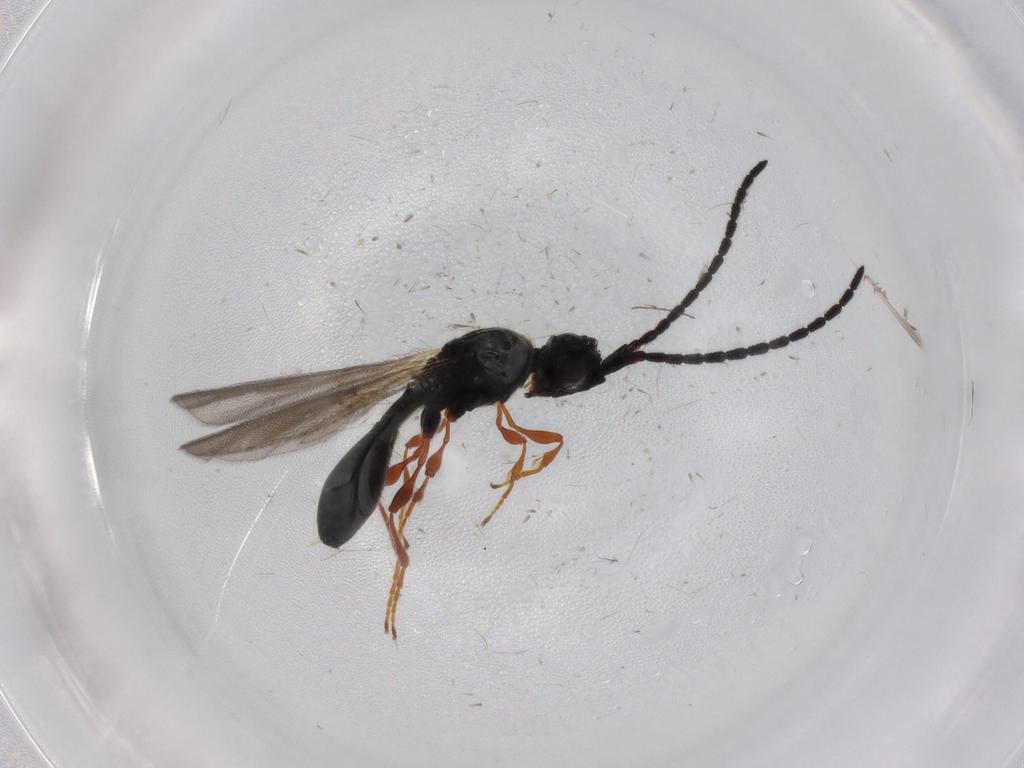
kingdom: Animalia
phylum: Arthropoda
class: Insecta
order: Hymenoptera
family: Diapriidae
